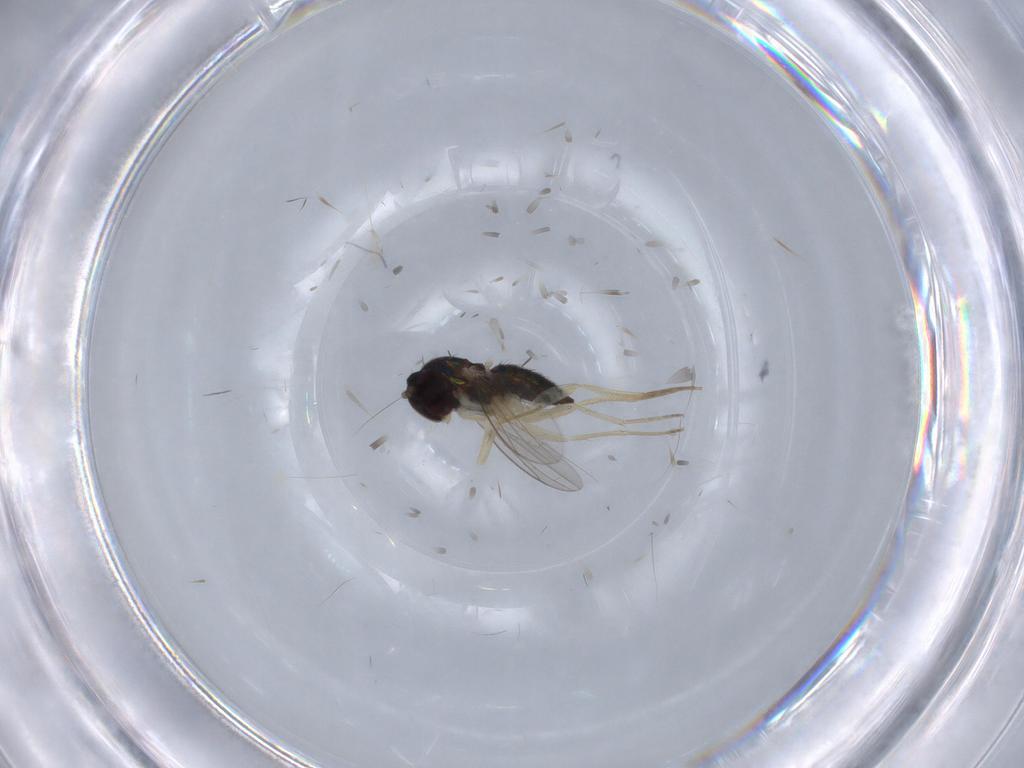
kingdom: Animalia
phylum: Arthropoda
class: Insecta
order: Diptera
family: Dolichopodidae
